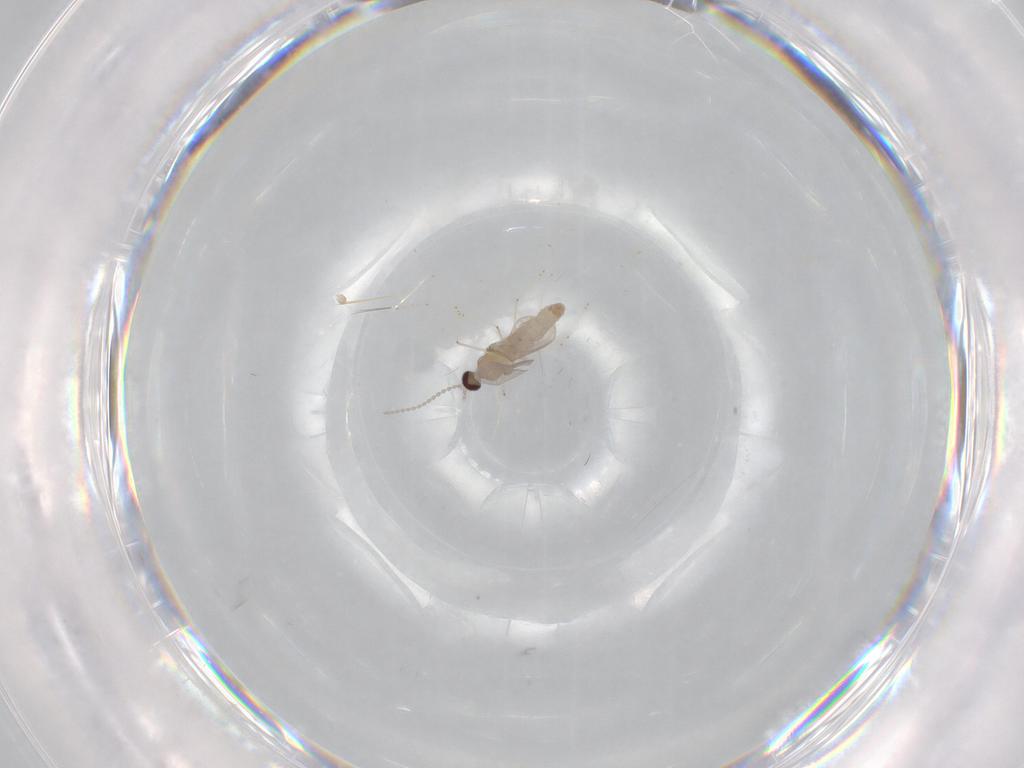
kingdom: Animalia
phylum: Arthropoda
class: Insecta
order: Diptera
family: Cecidomyiidae
